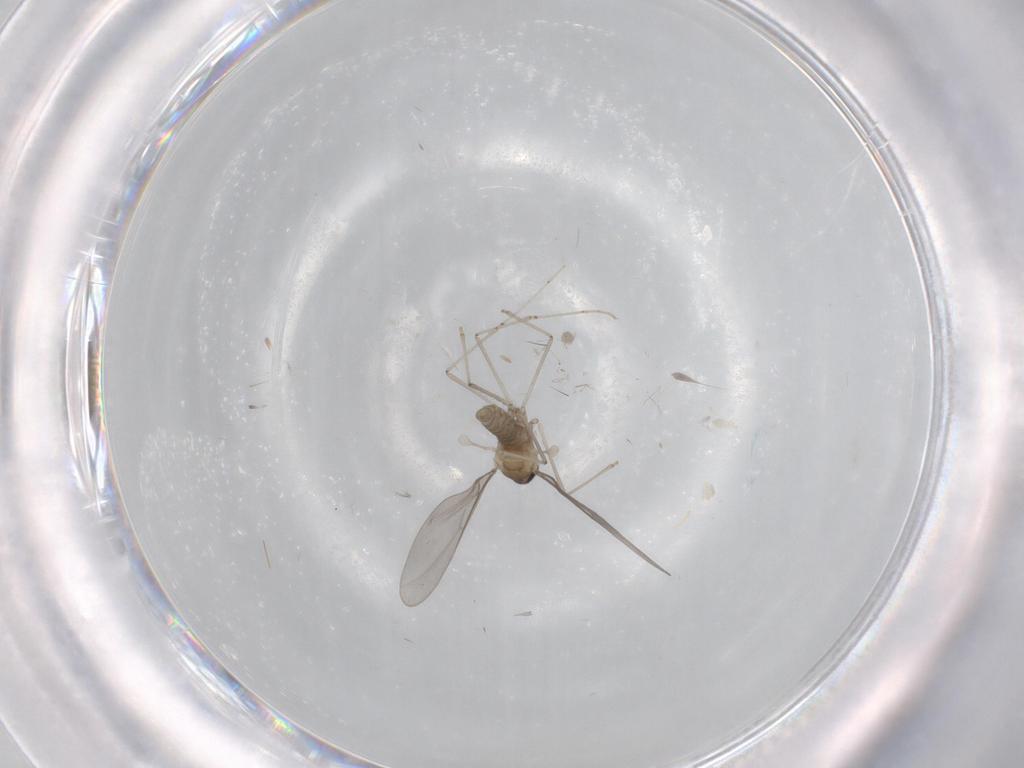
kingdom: Animalia
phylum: Arthropoda
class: Insecta
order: Diptera
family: Cecidomyiidae
